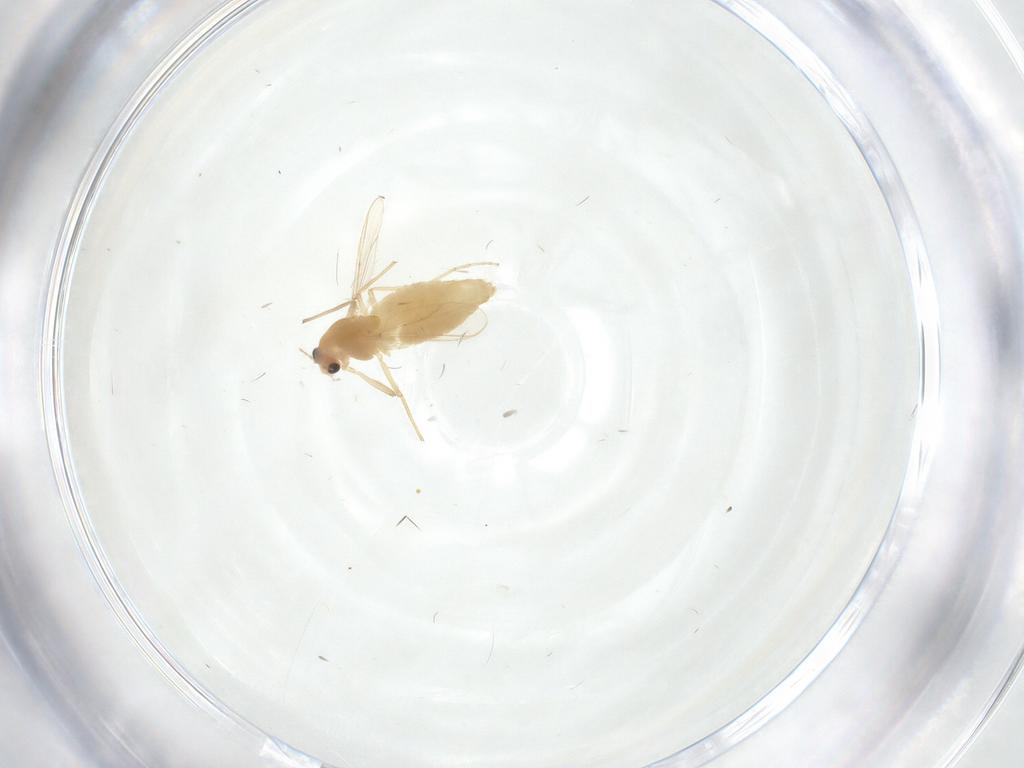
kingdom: Animalia
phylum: Arthropoda
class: Insecta
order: Diptera
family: Chironomidae
